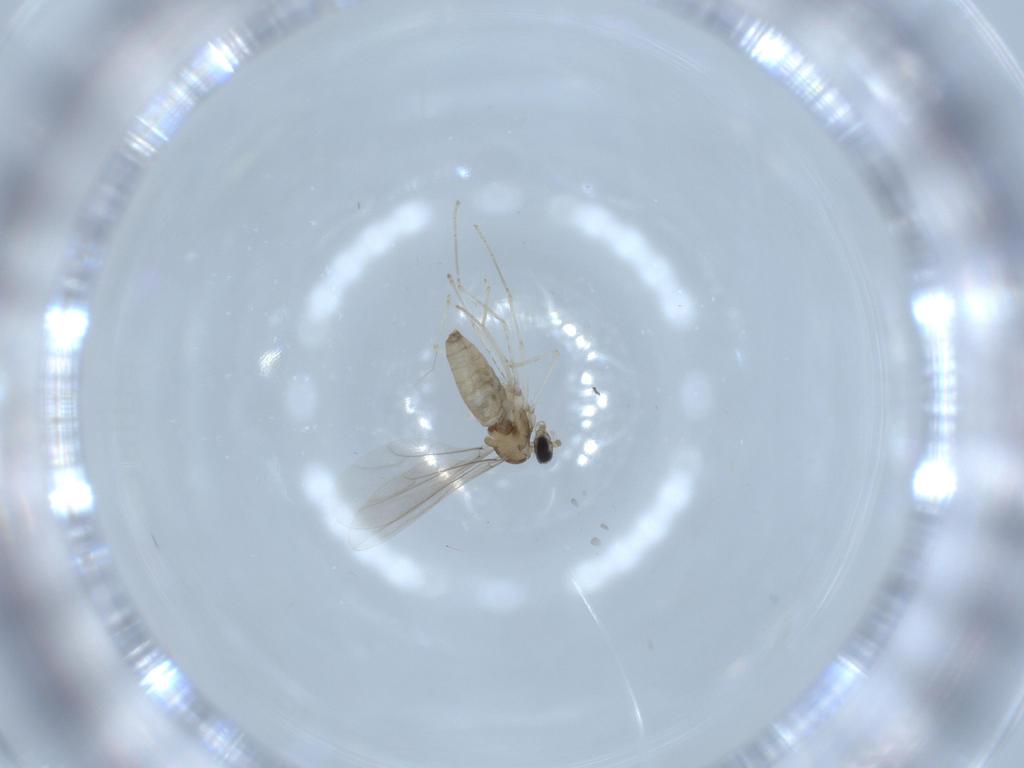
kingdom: Animalia
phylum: Arthropoda
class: Insecta
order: Diptera
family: Cecidomyiidae
